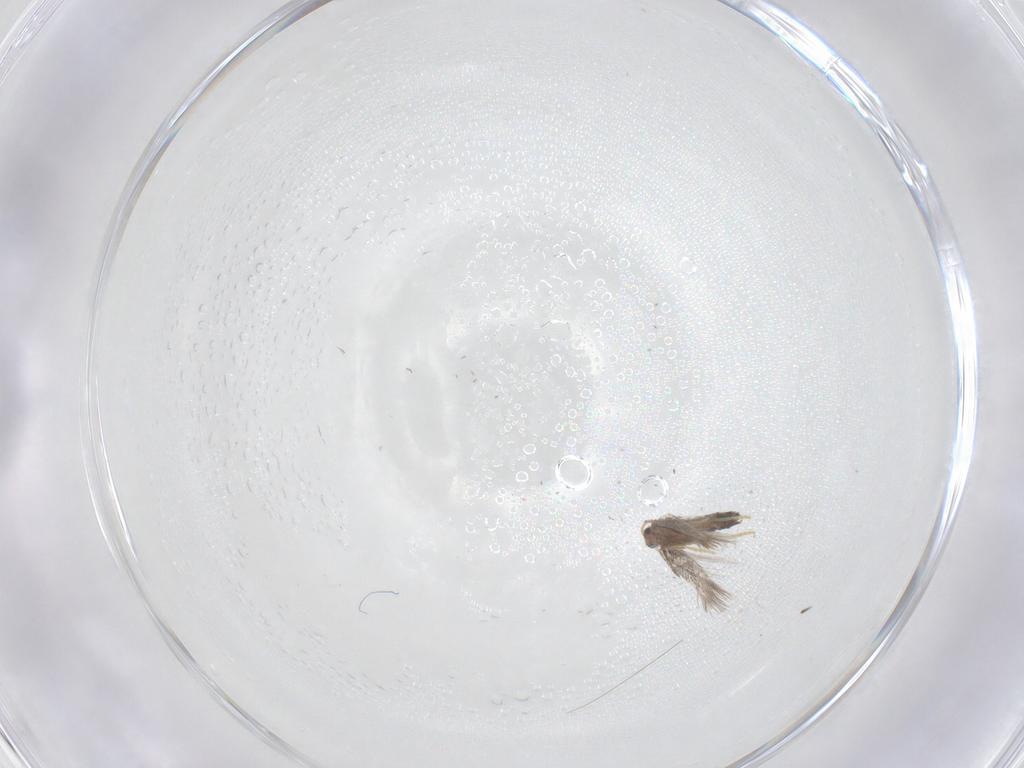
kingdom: Animalia
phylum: Arthropoda
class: Insecta
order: Lepidoptera
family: Nepticulidae
